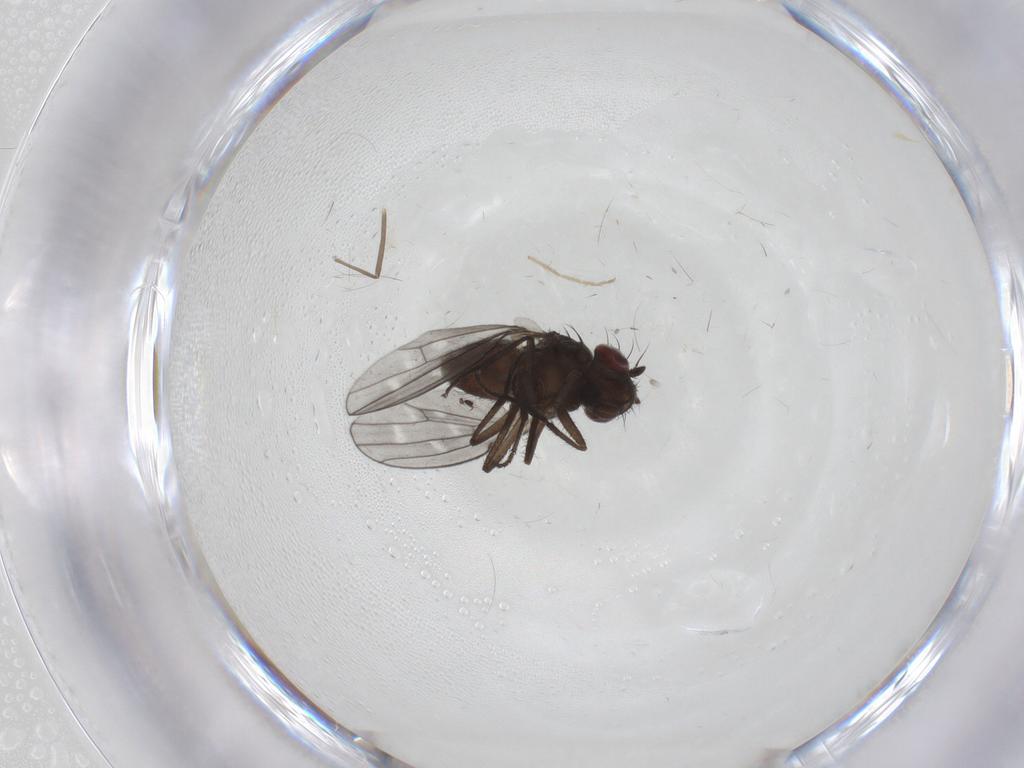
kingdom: Animalia
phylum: Arthropoda
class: Insecta
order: Diptera
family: Ephydridae
